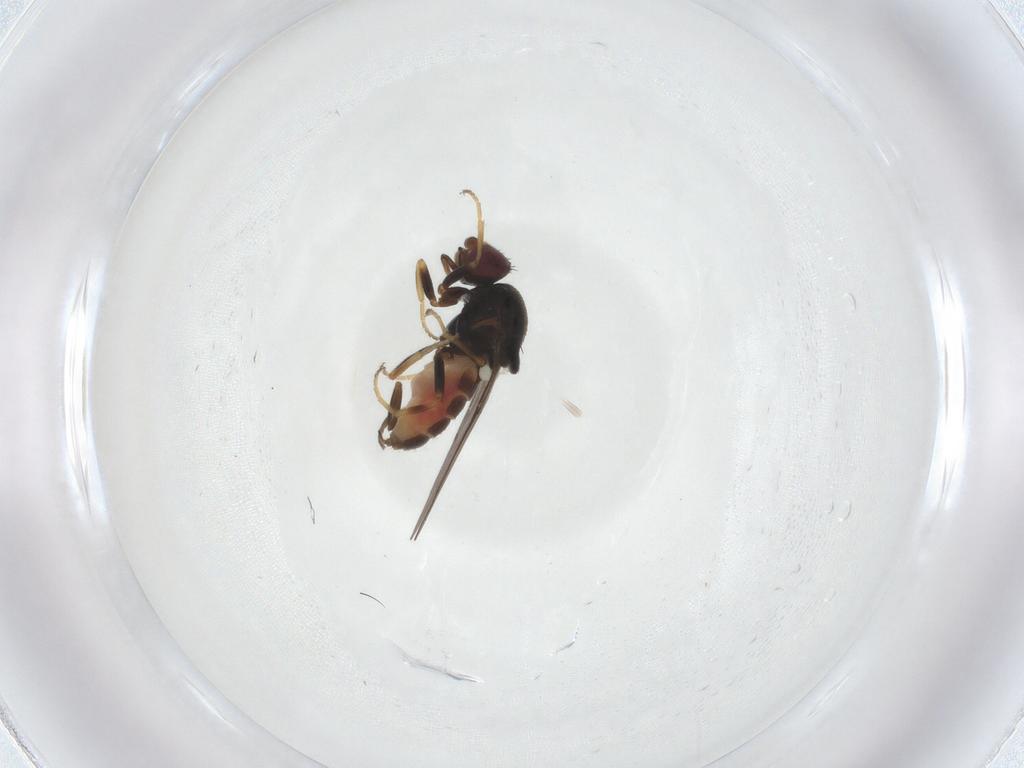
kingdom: Animalia
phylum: Arthropoda
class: Insecta
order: Diptera
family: Chloropidae
